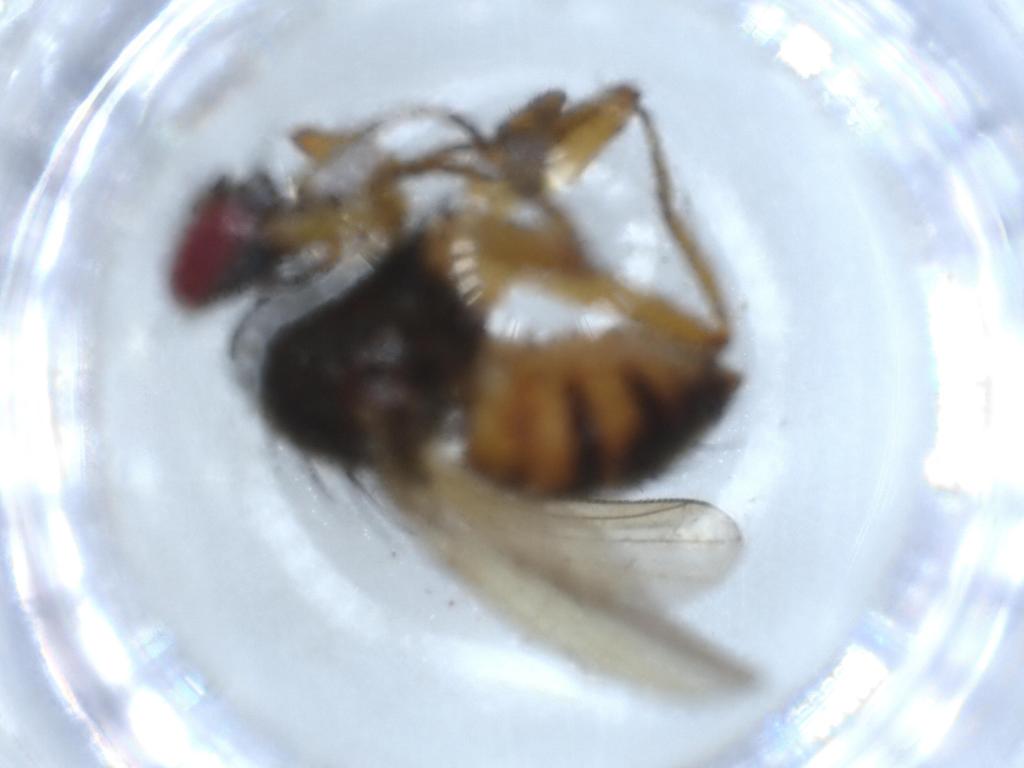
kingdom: Animalia
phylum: Arthropoda
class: Insecta
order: Diptera
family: Muscidae
